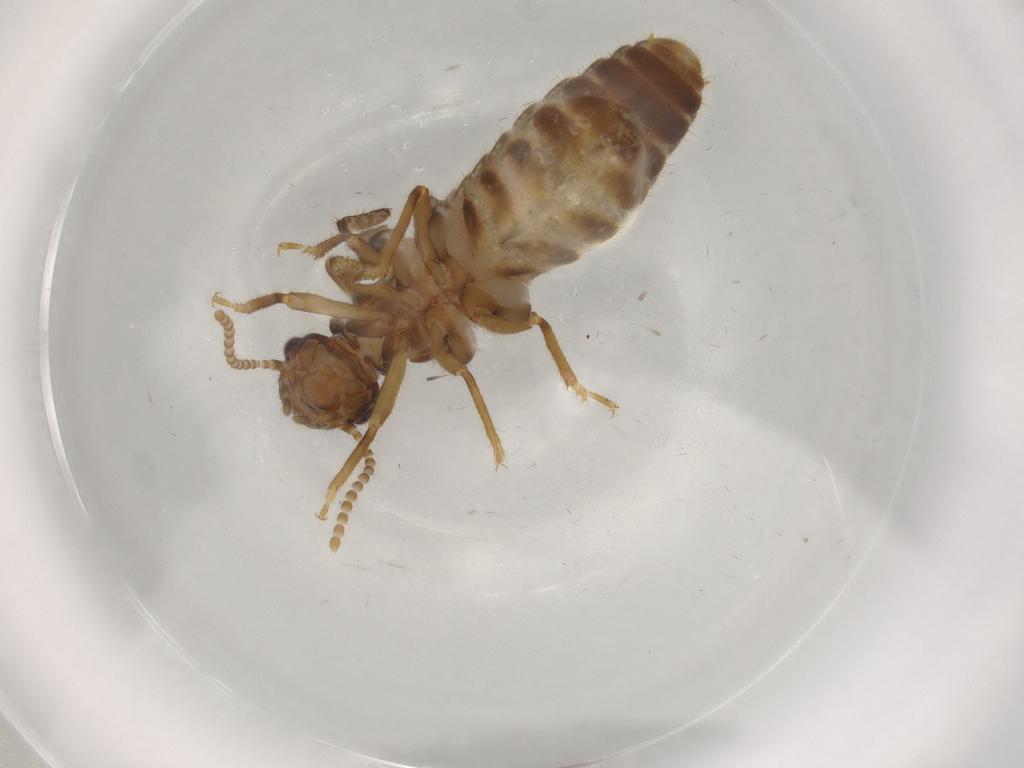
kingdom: Animalia
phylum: Arthropoda
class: Insecta
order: Blattodea
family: Termitidae
